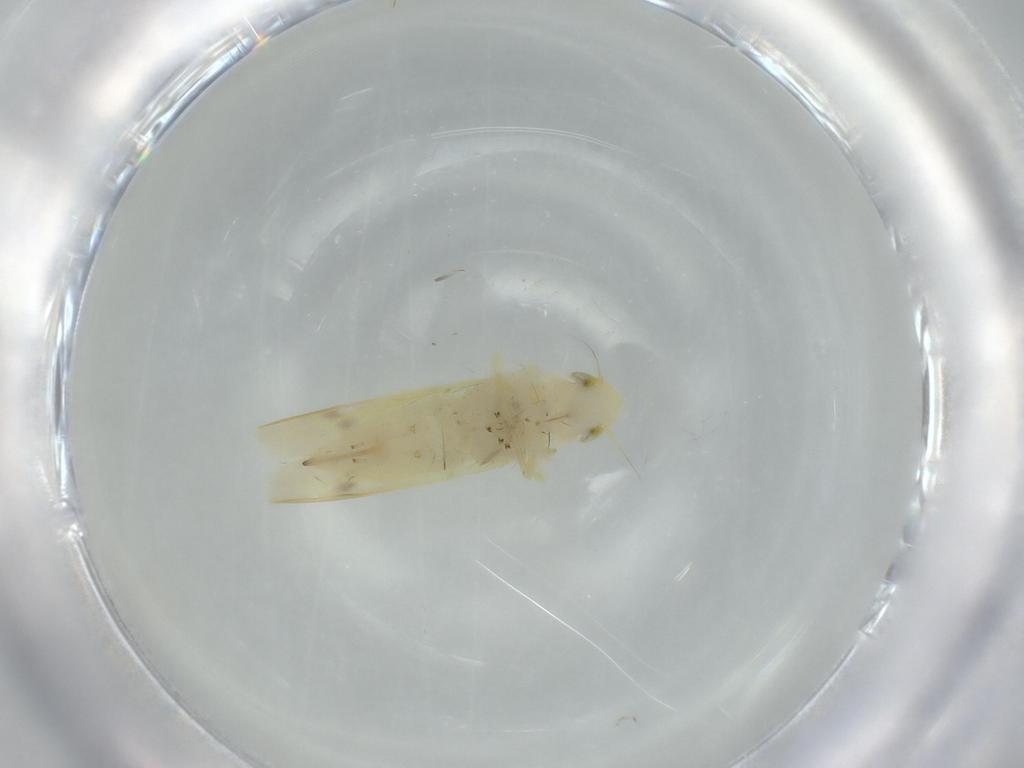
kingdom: Animalia
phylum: Arthropoda
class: Insecta
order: Hemiptera
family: Cicadellidae
